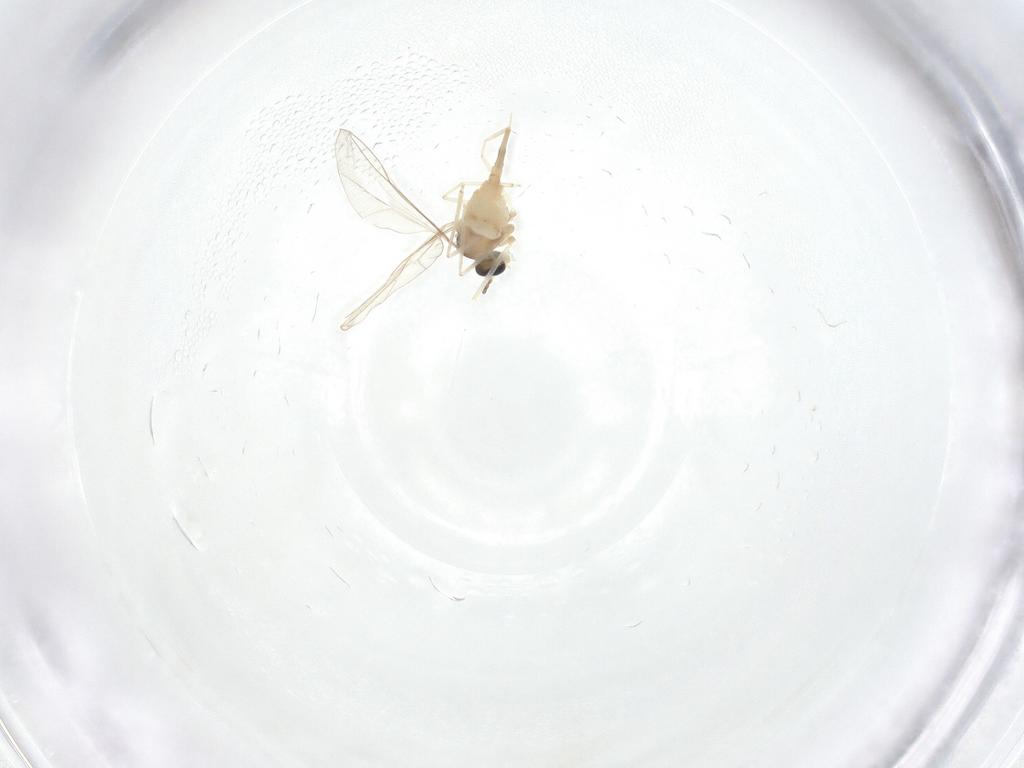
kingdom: Animalia
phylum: Arthropoda
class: Insecta
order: Diptera
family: Cecidomyiidae
